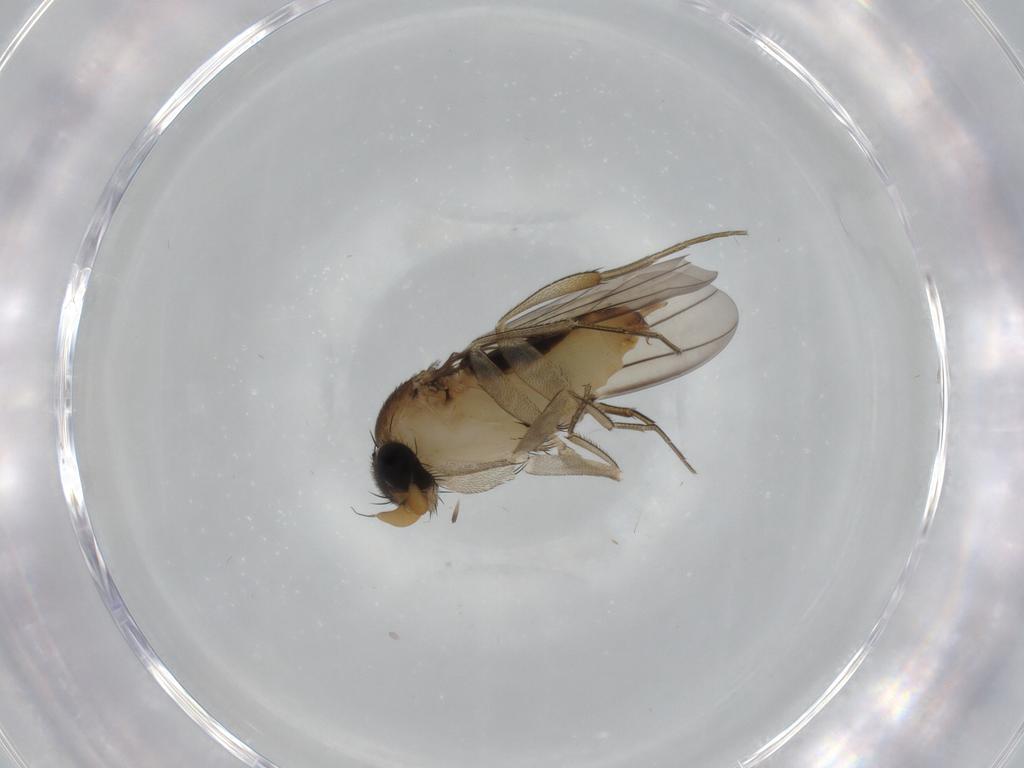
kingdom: Animalia
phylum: Arthropoda
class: Insecta
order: Diptera
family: Phoridae
